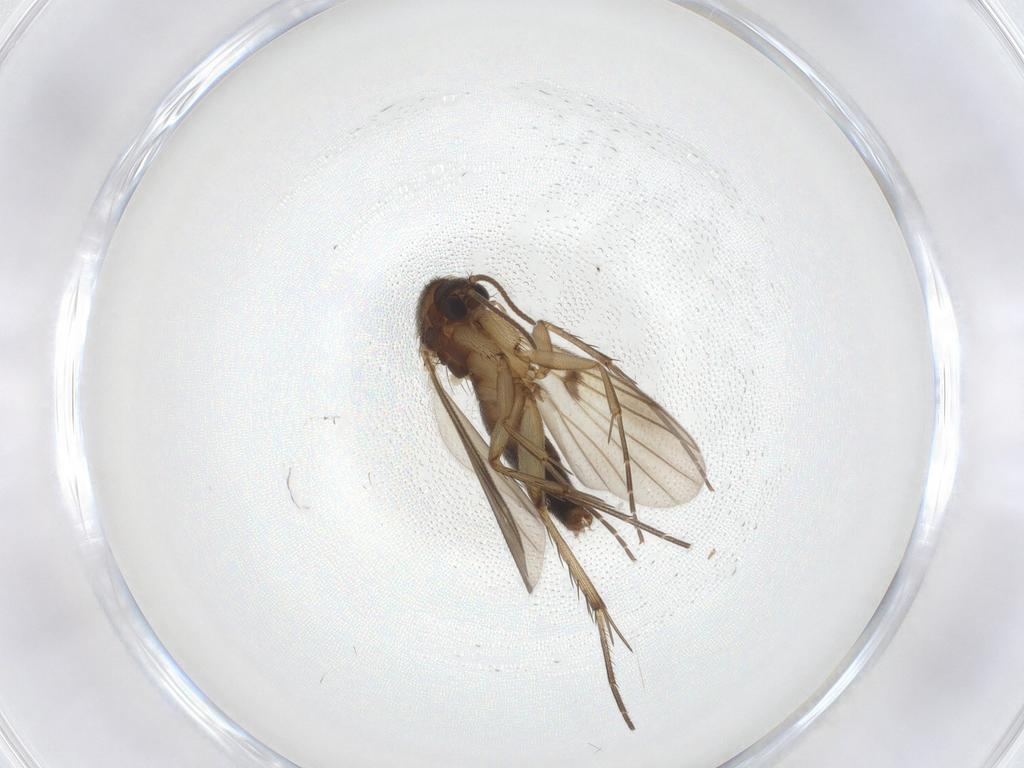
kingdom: Animalia
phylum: Arthropoda
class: Insecta
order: Diptera
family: Mycetophilidae
